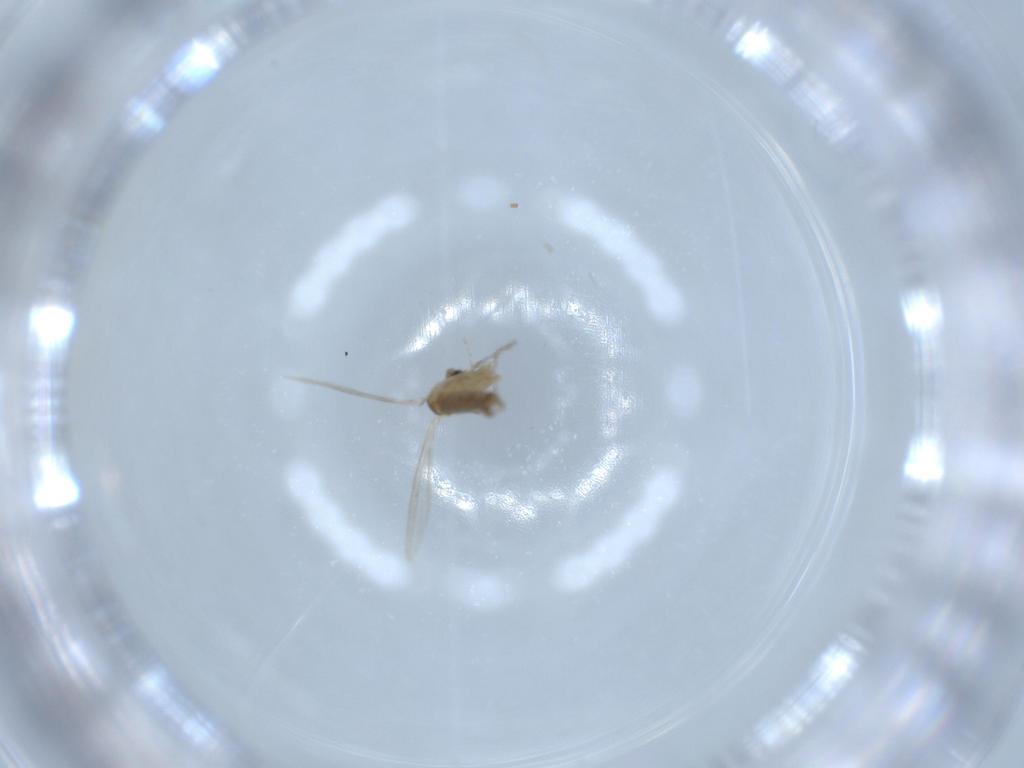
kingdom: Animalia
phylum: Arthropoda
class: Insecta
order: Diptera
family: Psychodidae
